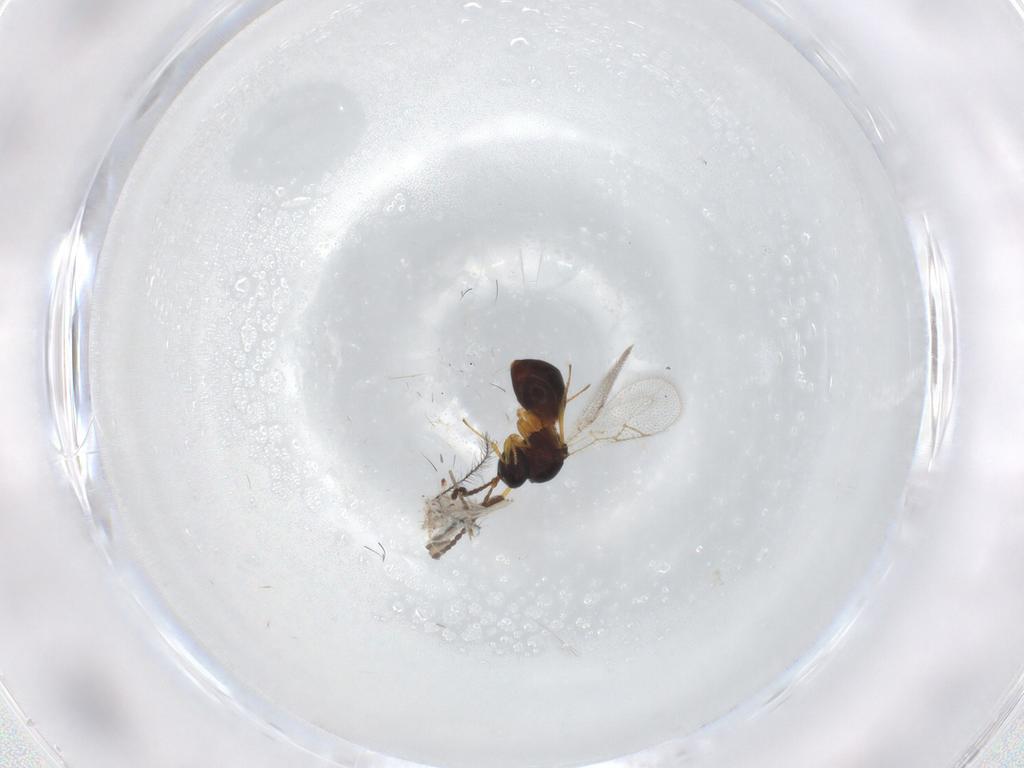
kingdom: Animalia
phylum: Arthropoda
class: Insecta
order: Hymenoptera
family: Figitidae
